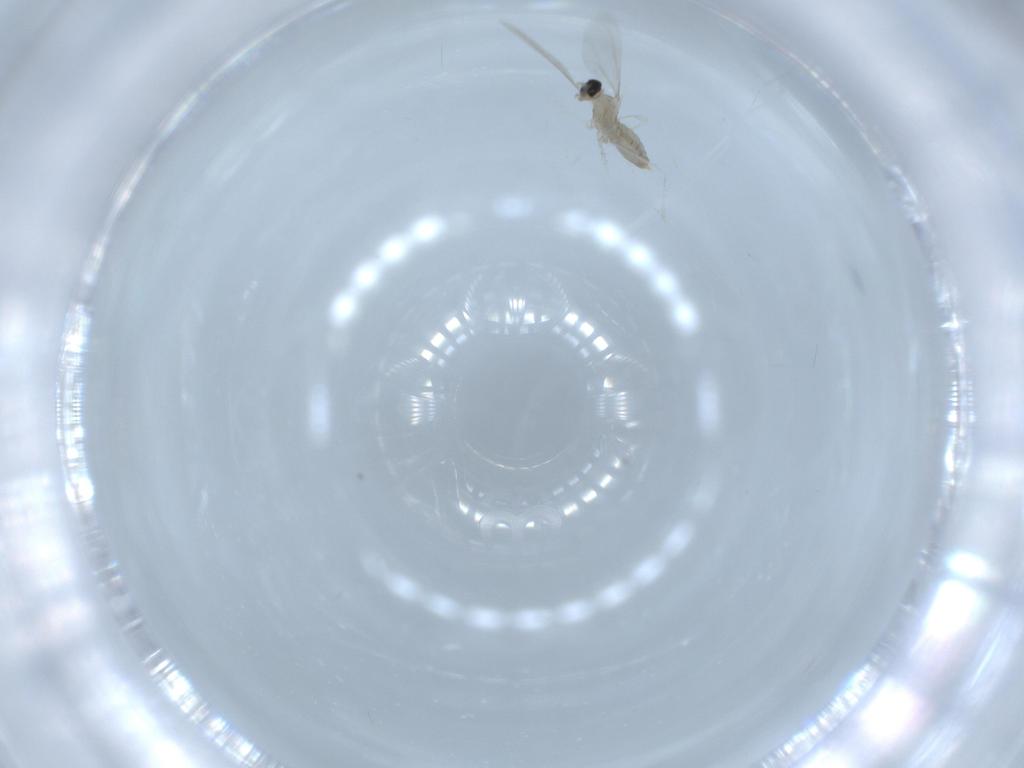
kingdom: Animalia
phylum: Arthropoda
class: Insecta
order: Diptera
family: Cecidomyiidae
